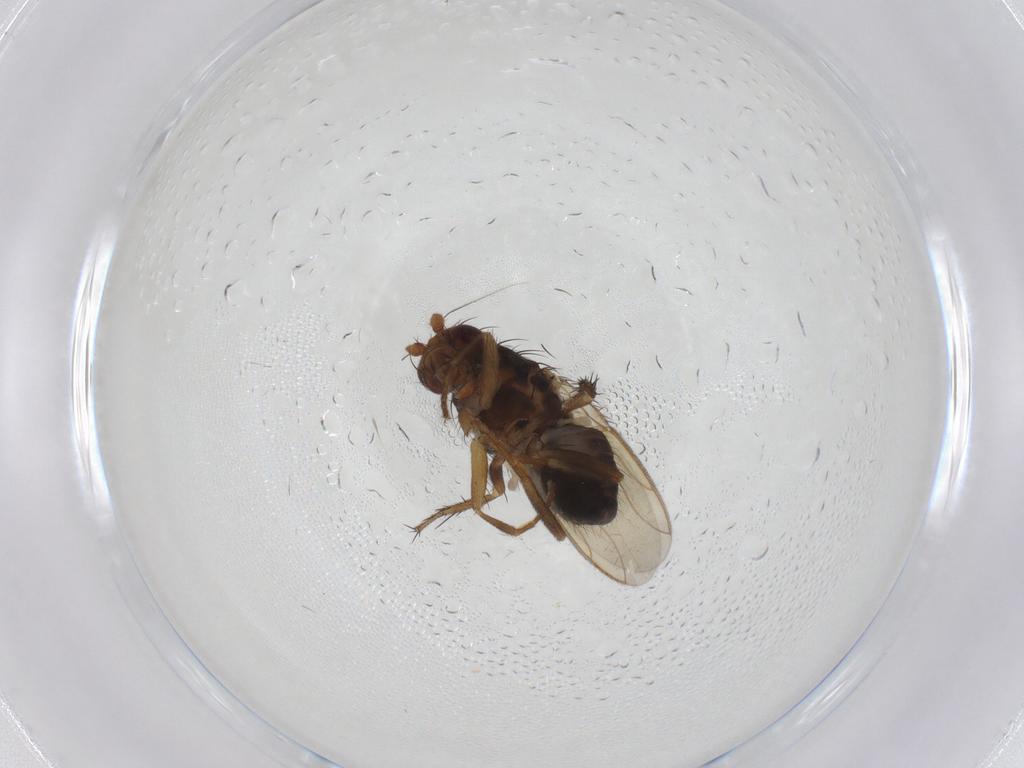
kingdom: Animalia
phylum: Arthropoda
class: Insecta
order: Diptera
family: Sphaeroceridae
